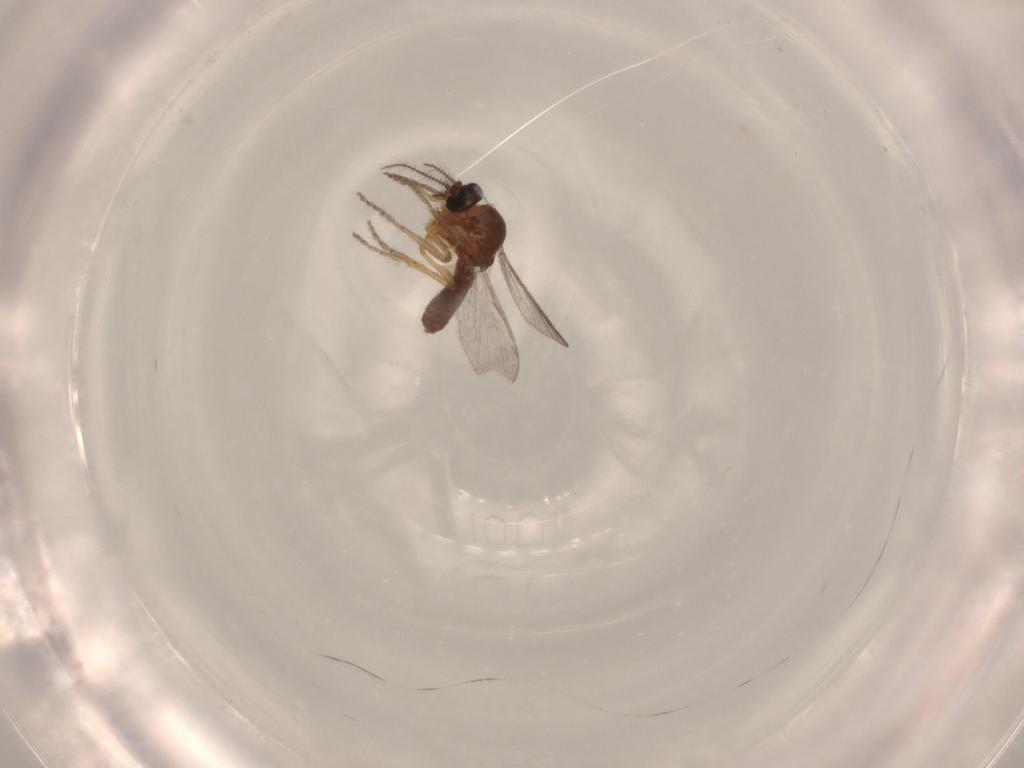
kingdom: Animalia
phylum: Arthropoda
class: Insecta
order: Diptera
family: Ceratopogonidae
